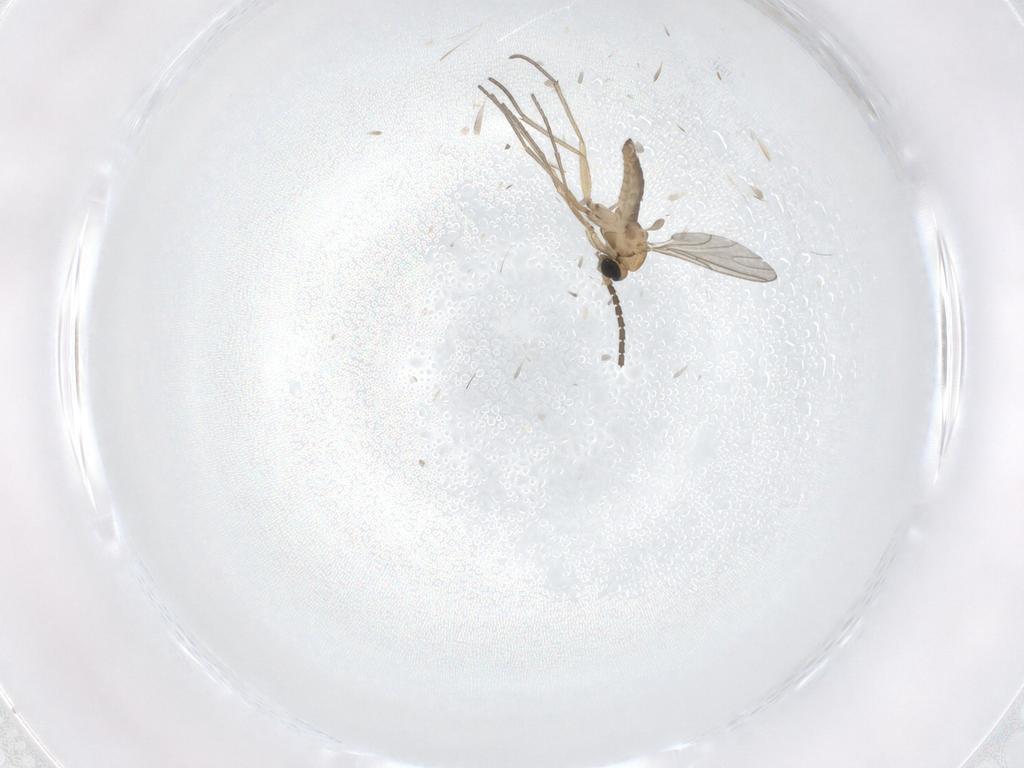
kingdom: Animalia
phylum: Arthropoda
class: Insecta
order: Diptera
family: Sciaridae
